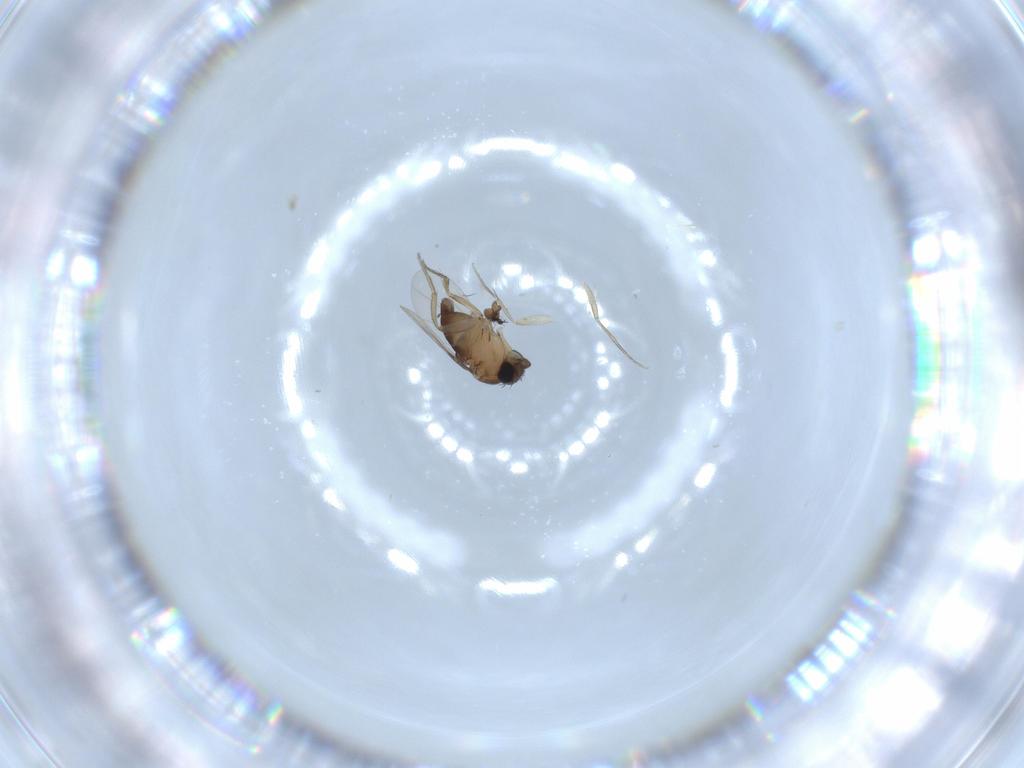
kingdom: Animalia
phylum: Arthropoda
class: Insecta
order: Diptera
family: Phoridae
